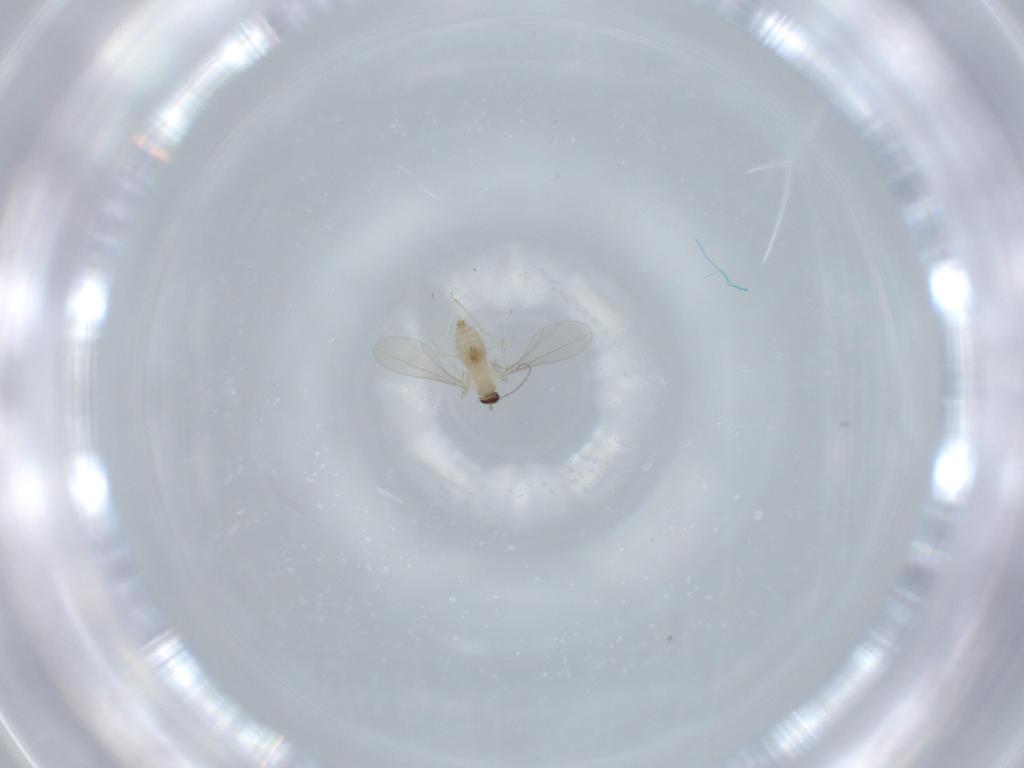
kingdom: Animalia
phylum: Arthropoda
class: Insecta
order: Diptera
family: Cecidomyiidae
